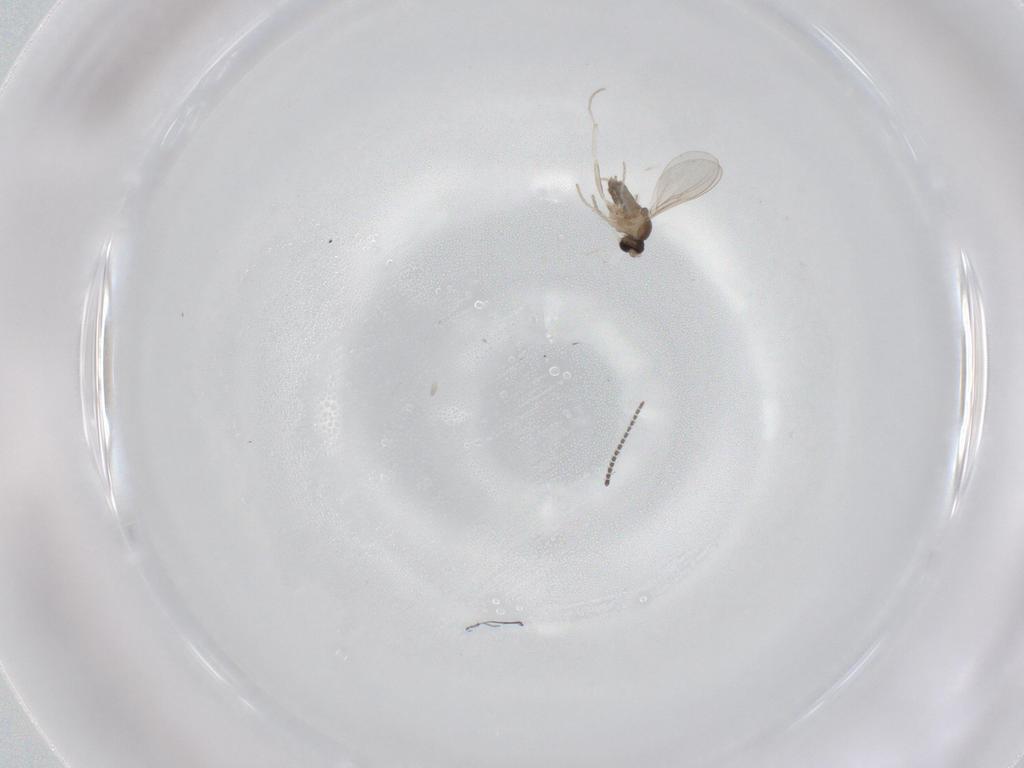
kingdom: Animalia
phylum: Arthropoda
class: Insecta
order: Diptera
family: Cecidomyiidae
